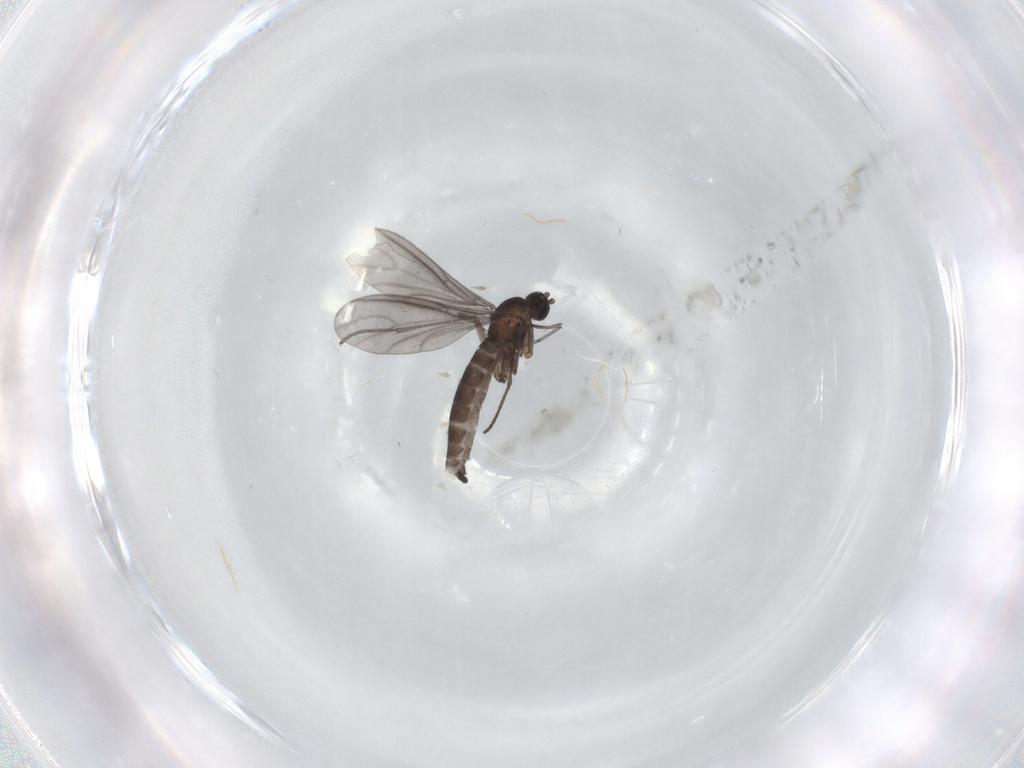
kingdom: Animalia
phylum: Arthropoda
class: Insecta
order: Diptera
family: Sciaridae
